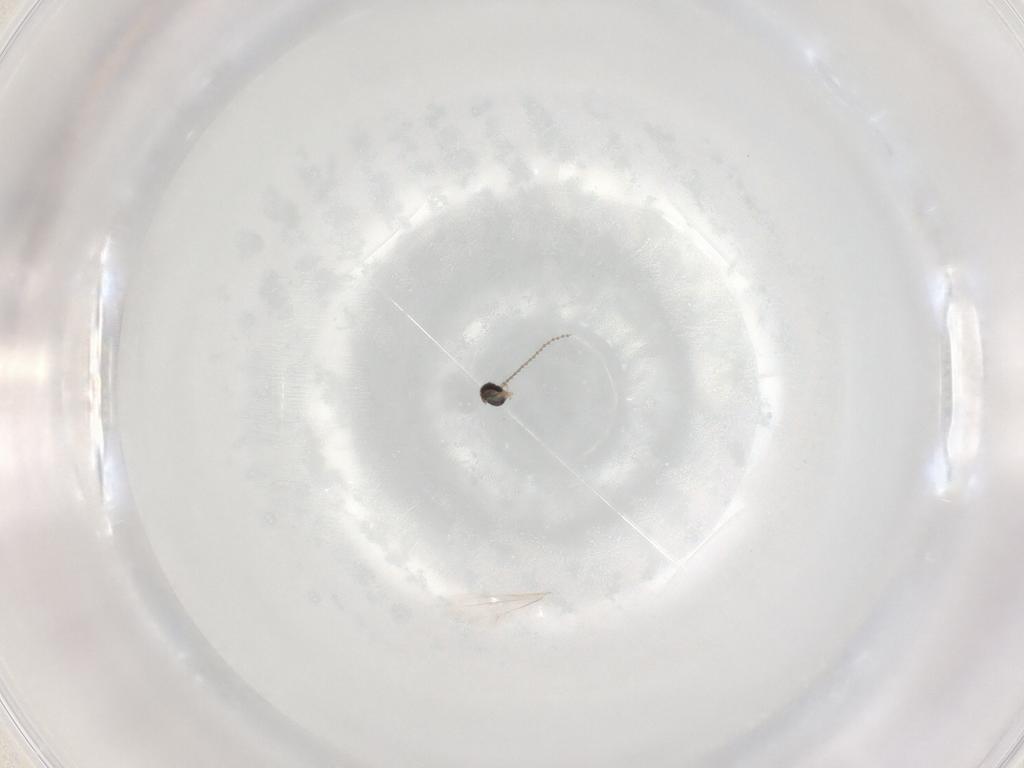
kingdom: Animalia
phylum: Arthropoda
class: Insecta
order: Diptera
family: Cecidomyiidae
